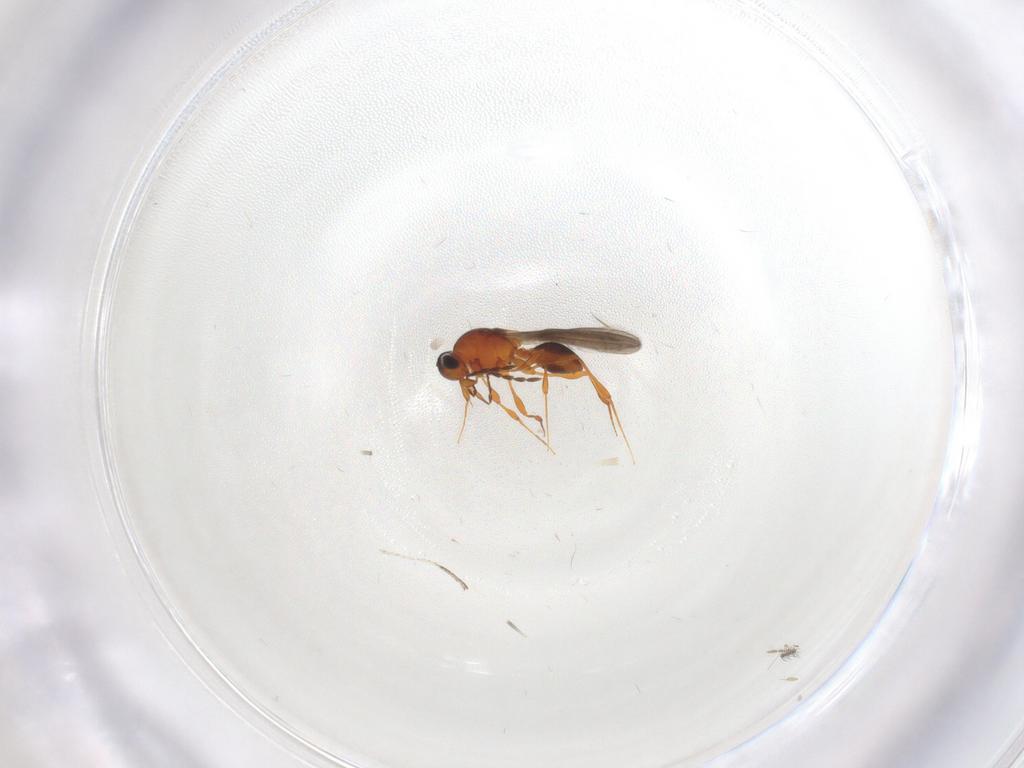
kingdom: Animalia
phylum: Arthropoda
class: Insecta
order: Hymenoptera
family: Platygastridae
